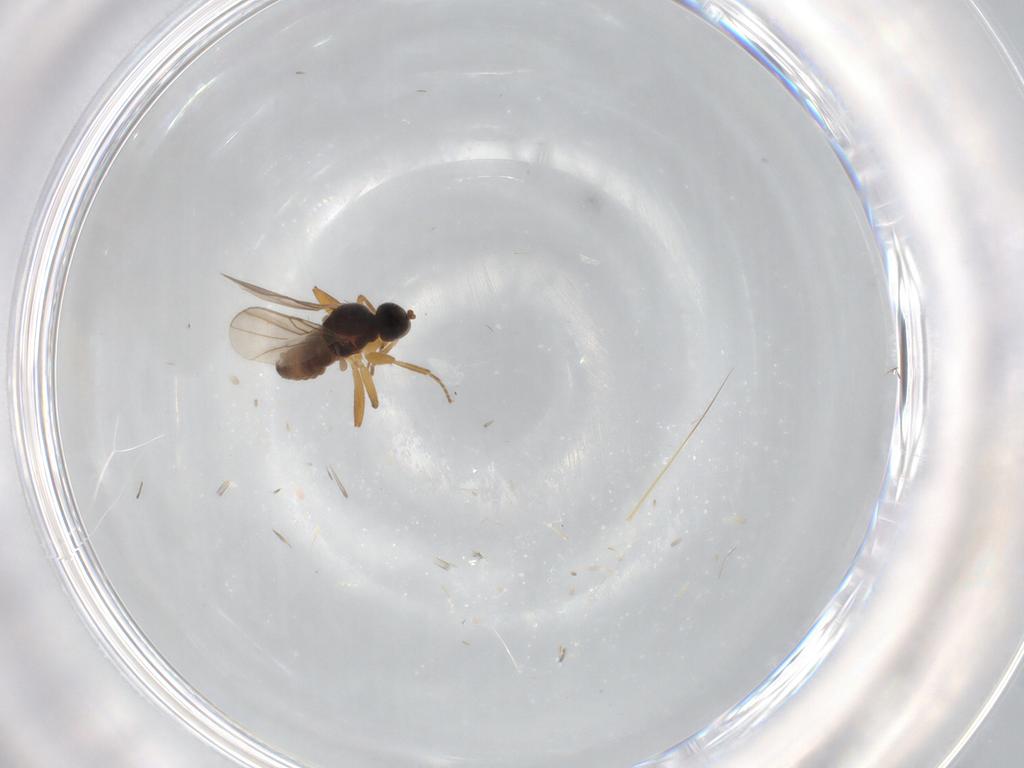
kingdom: Animalia
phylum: Arthropoda
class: Insecta
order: Diptera
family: Chironomidae
